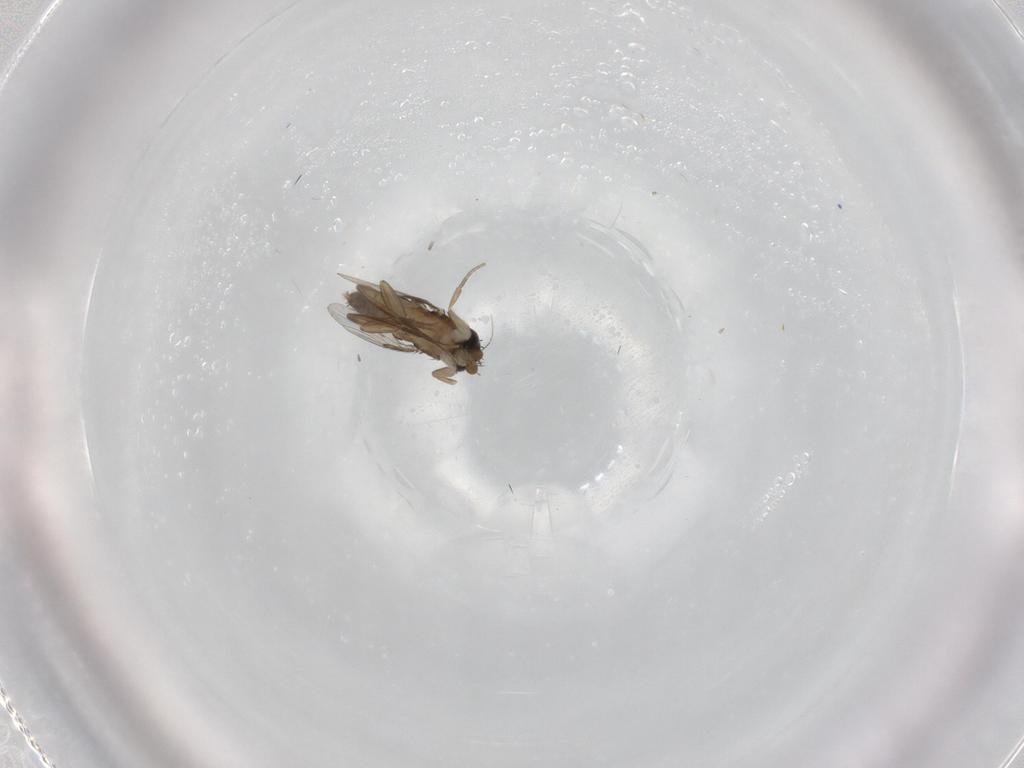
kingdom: Animalia
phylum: Arthropoda
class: Insecta
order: Diptera
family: Phoridae
